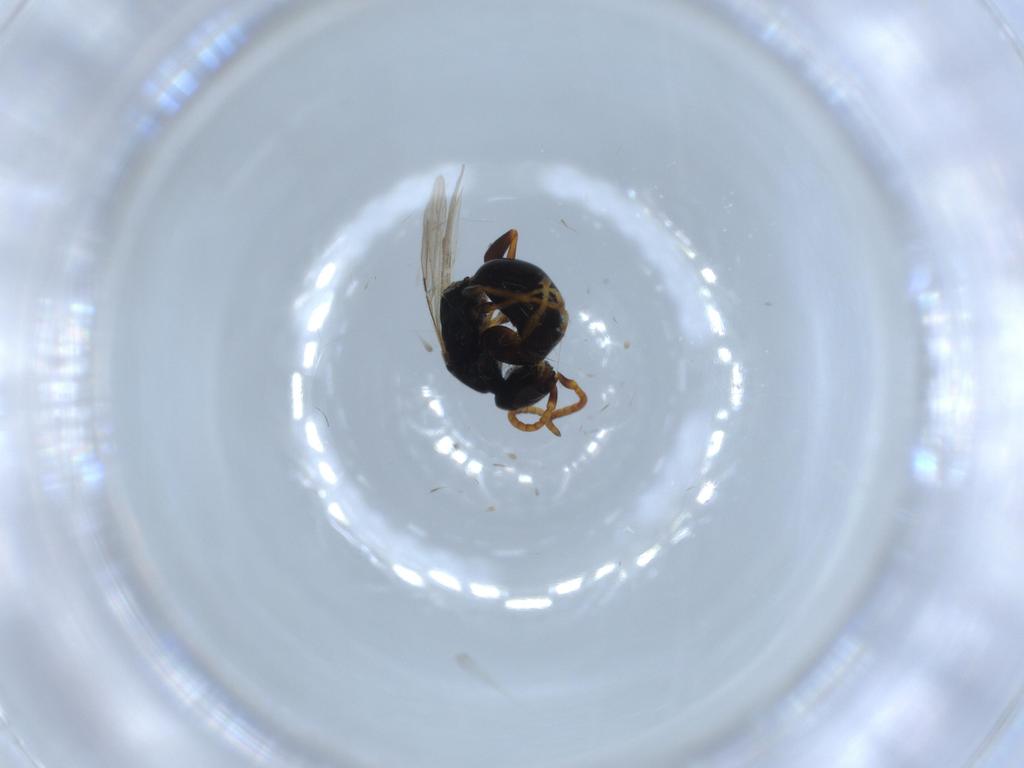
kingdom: Animalia
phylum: Arthropoda
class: Insecta
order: Hymenoptera
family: Bethylidae
